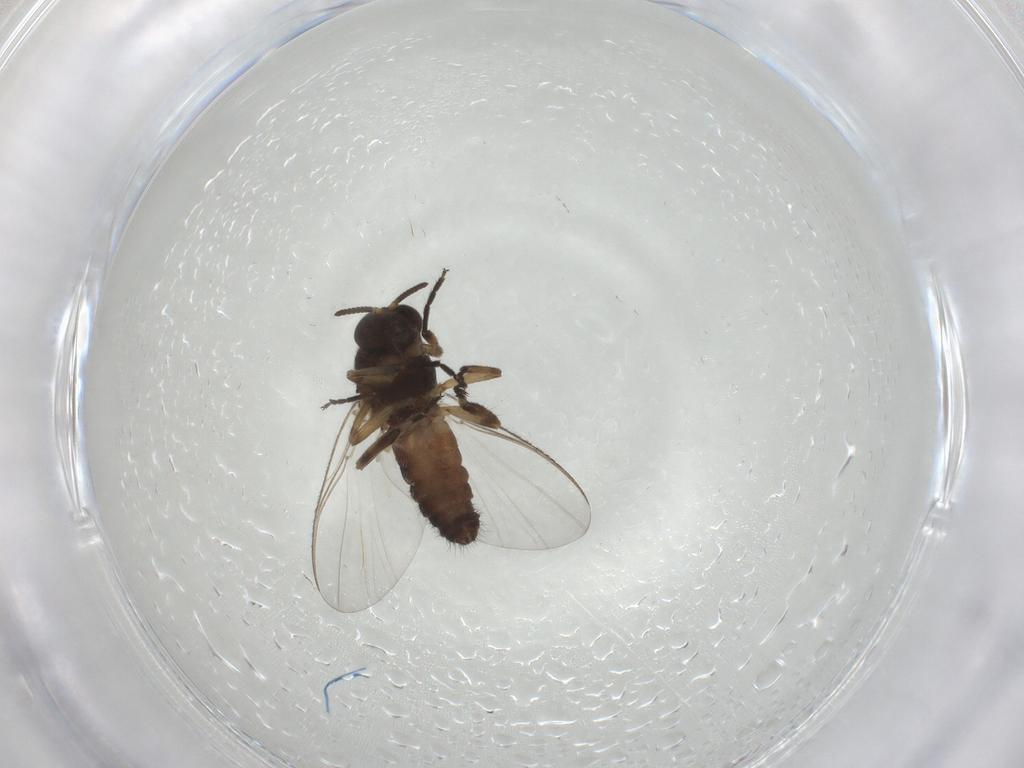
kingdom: Animalia
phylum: Arthropoda
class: Insecta
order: Diptera
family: Simuliidae
